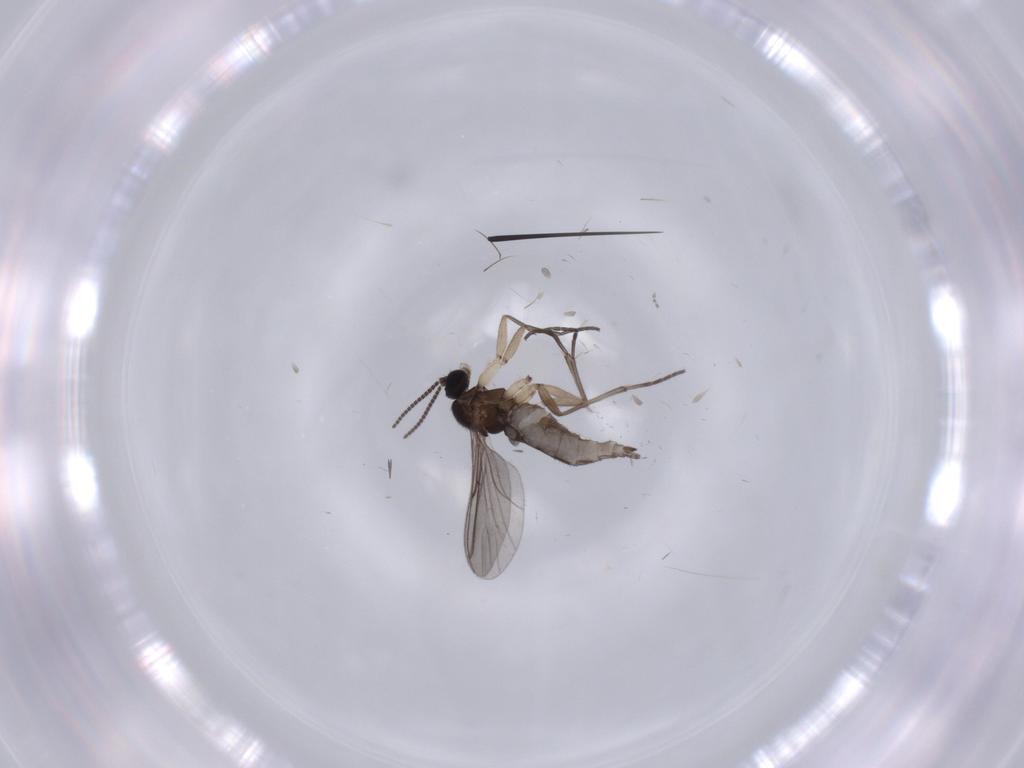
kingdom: Animalia
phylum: Arthropoda
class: Insecta
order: Diptera
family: Sciaridae
